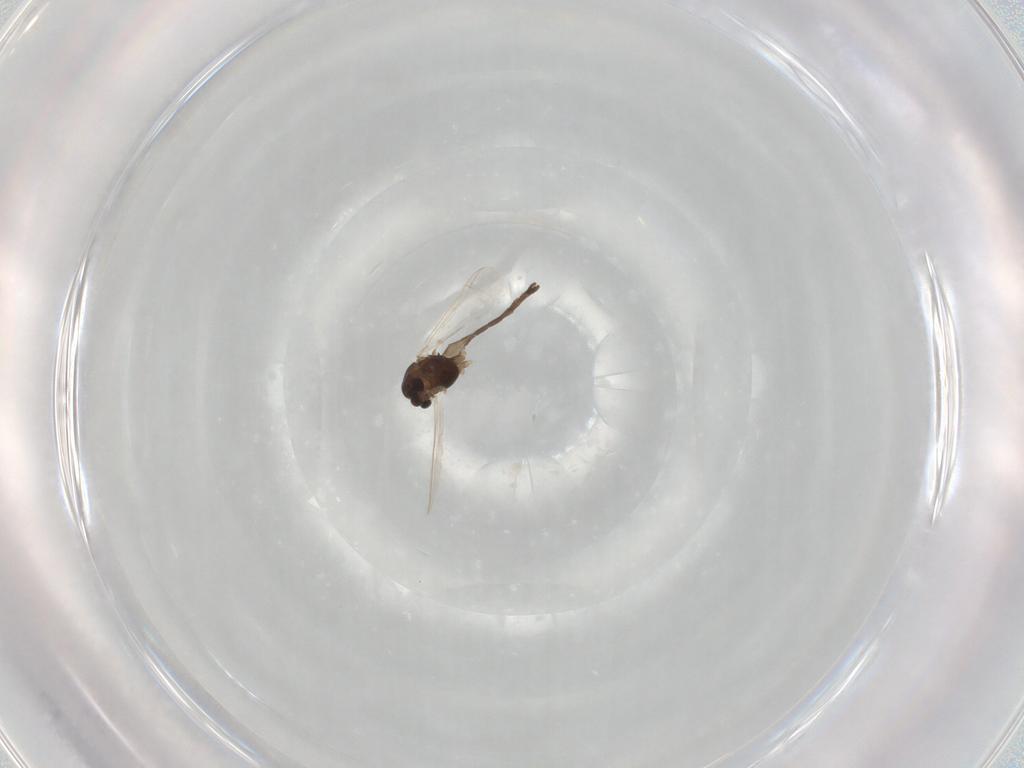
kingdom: Animalia
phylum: Arthropoda
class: Insecta
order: Diptera
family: Chironomidae
